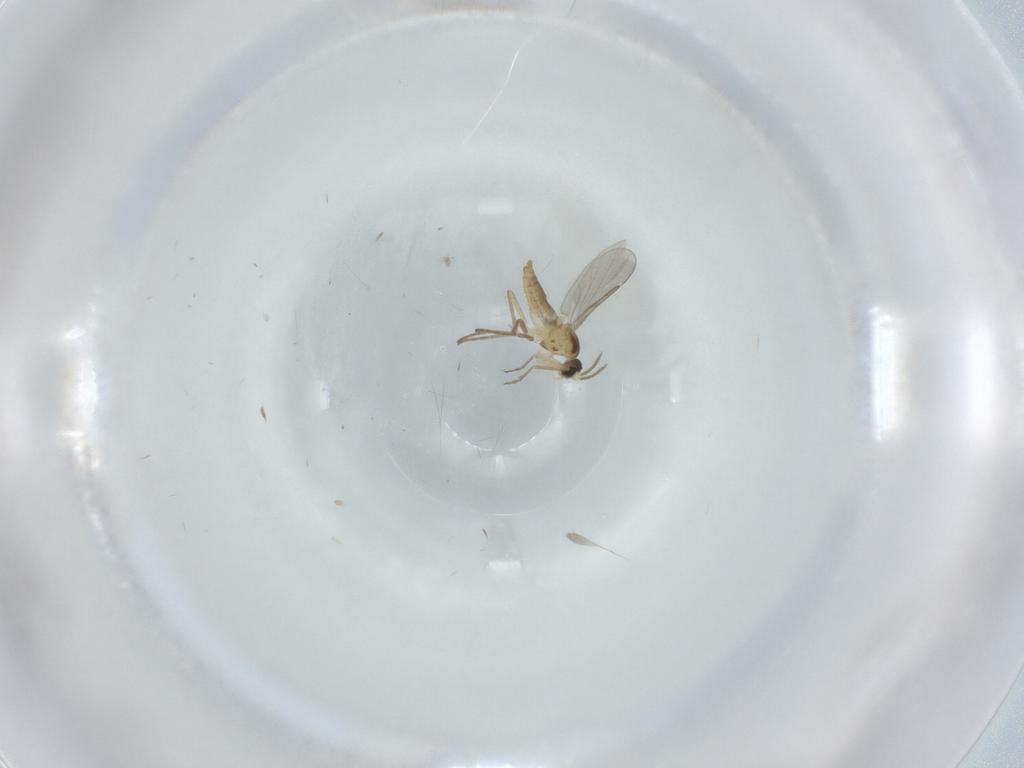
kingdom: Animalia
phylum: Arthropoda
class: Insecta
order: Diptera
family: Cecidomyiidae
